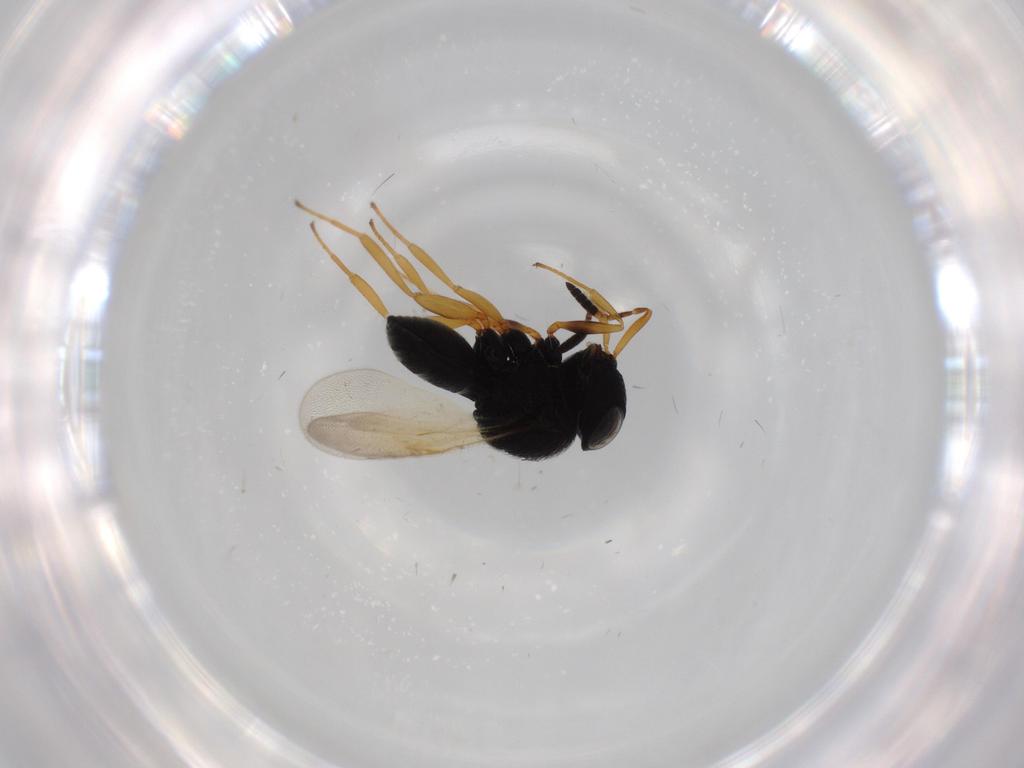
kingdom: Animalia
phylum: Arthropoda
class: Insecta
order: Hymenoptera
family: Scelionidae
